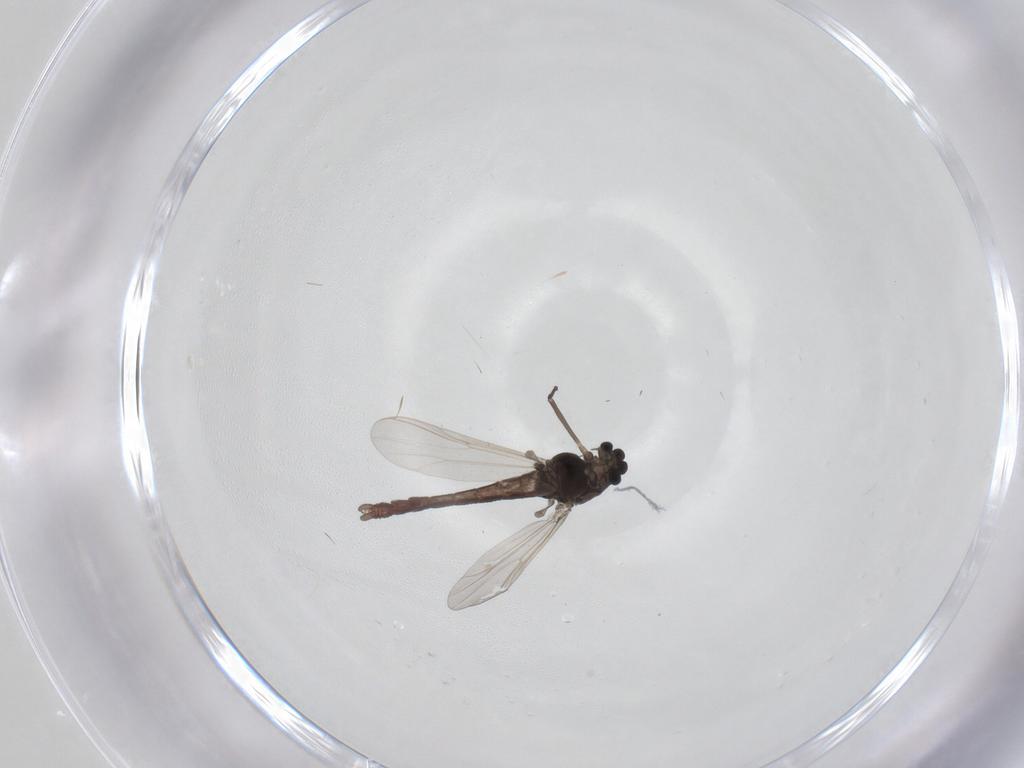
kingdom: Animalia
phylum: Arthropoda
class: Insecta
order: Diptera
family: Chironomidae
